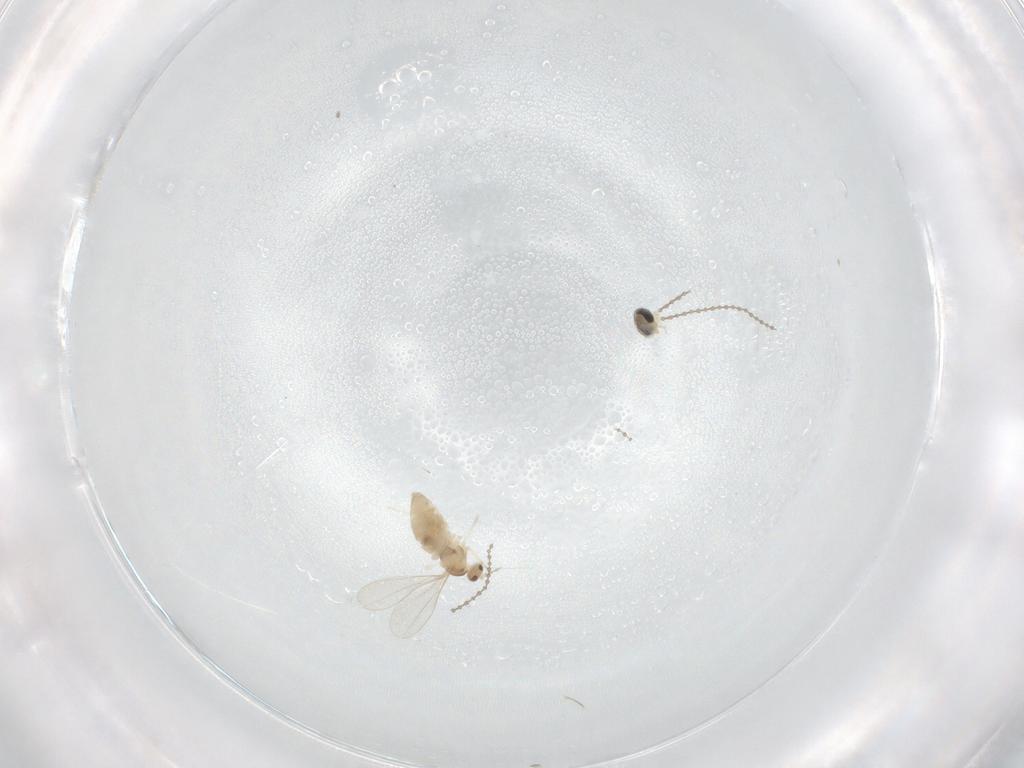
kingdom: Animalia
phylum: Arthropoda
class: Insecta
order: Diptera
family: Cecidomyiidae
